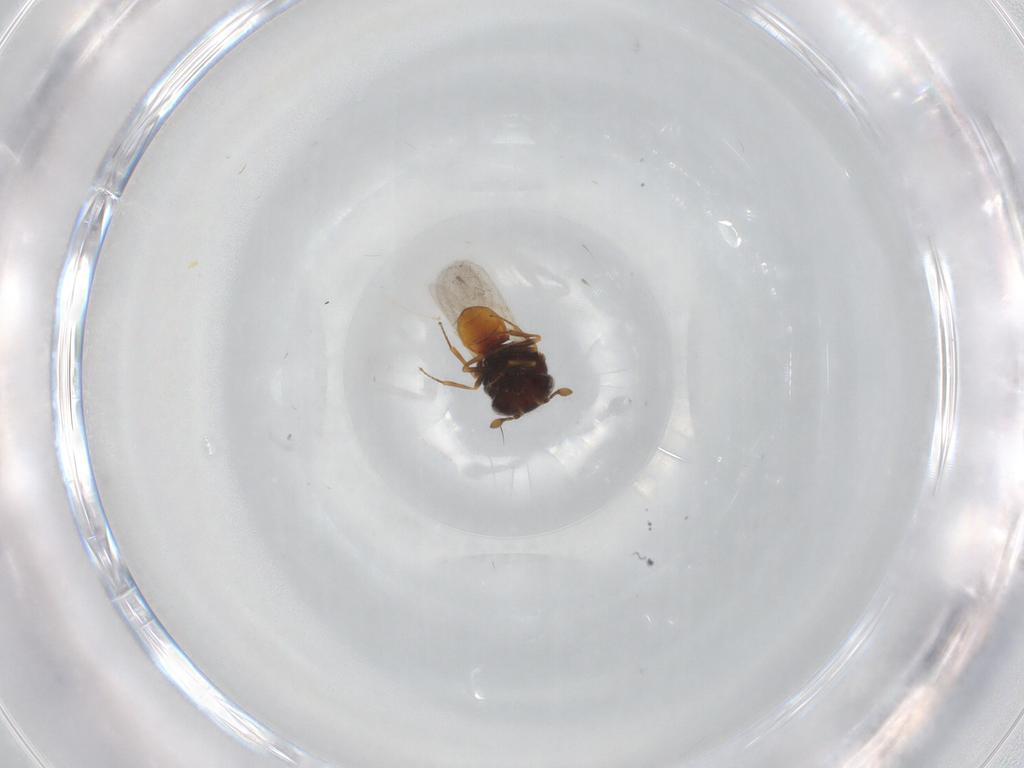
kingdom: Animalia
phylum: Arthropoda
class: Insecta
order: Hymenoptera
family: Scelionidae
